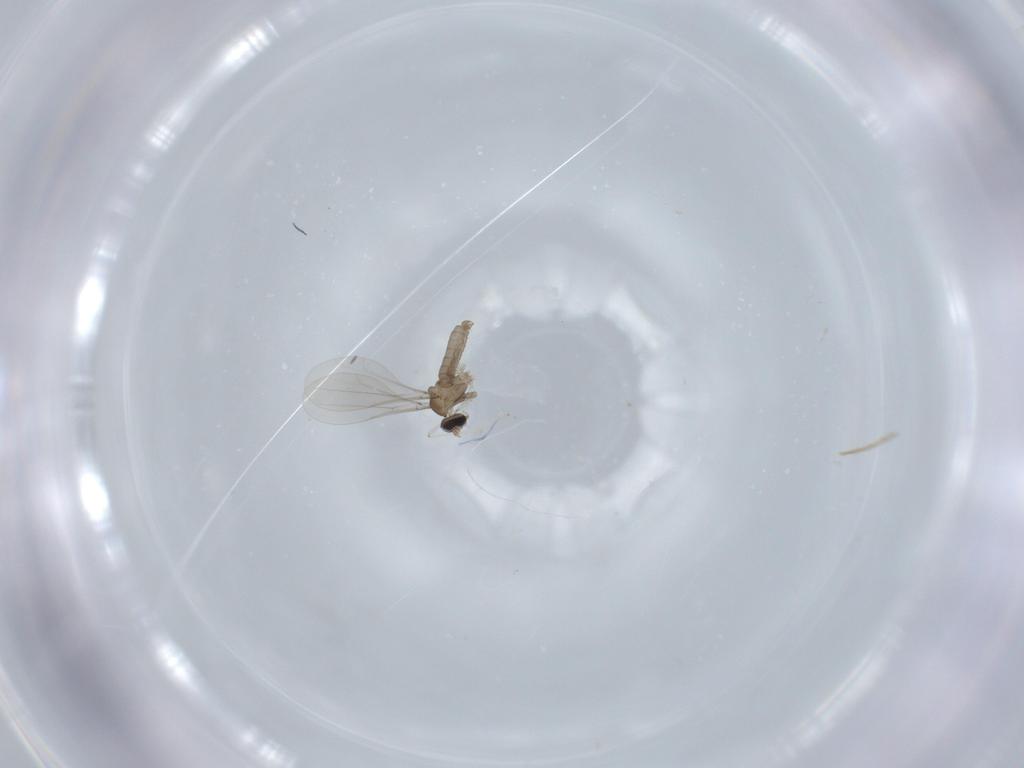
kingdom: Animalia
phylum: Arthropoda
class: Insecta
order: Diptera
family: Cecidomyiidae
